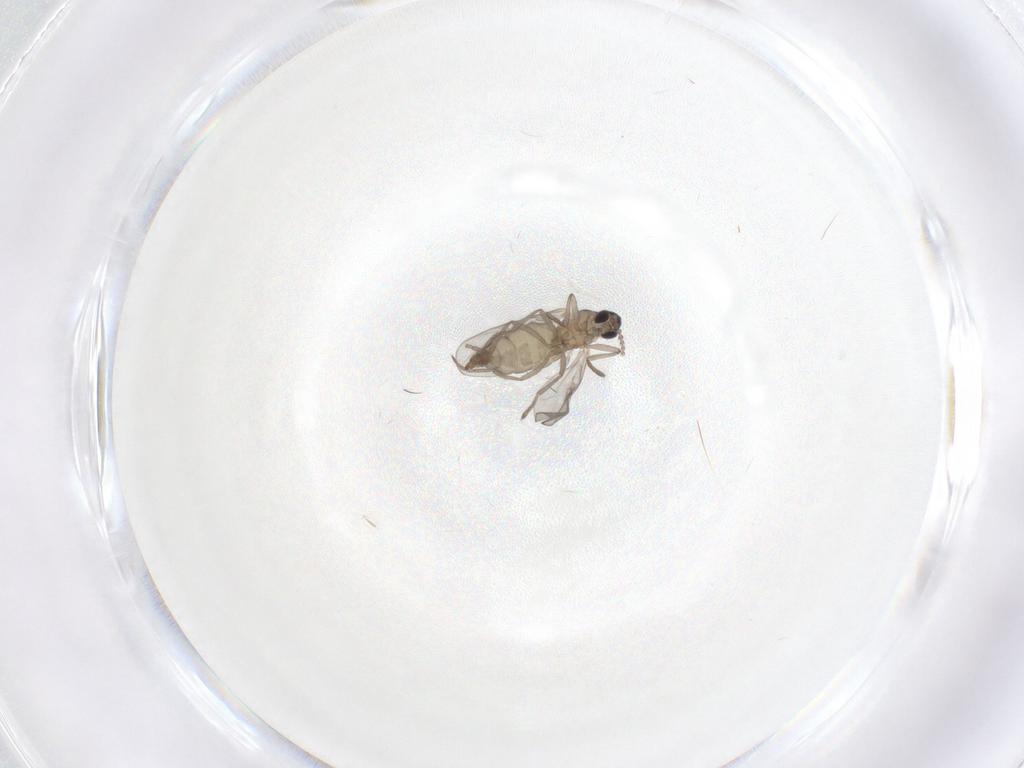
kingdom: Animalia
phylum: Arthropoda
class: Insecta
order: Diptera
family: Cecidomyiidae
